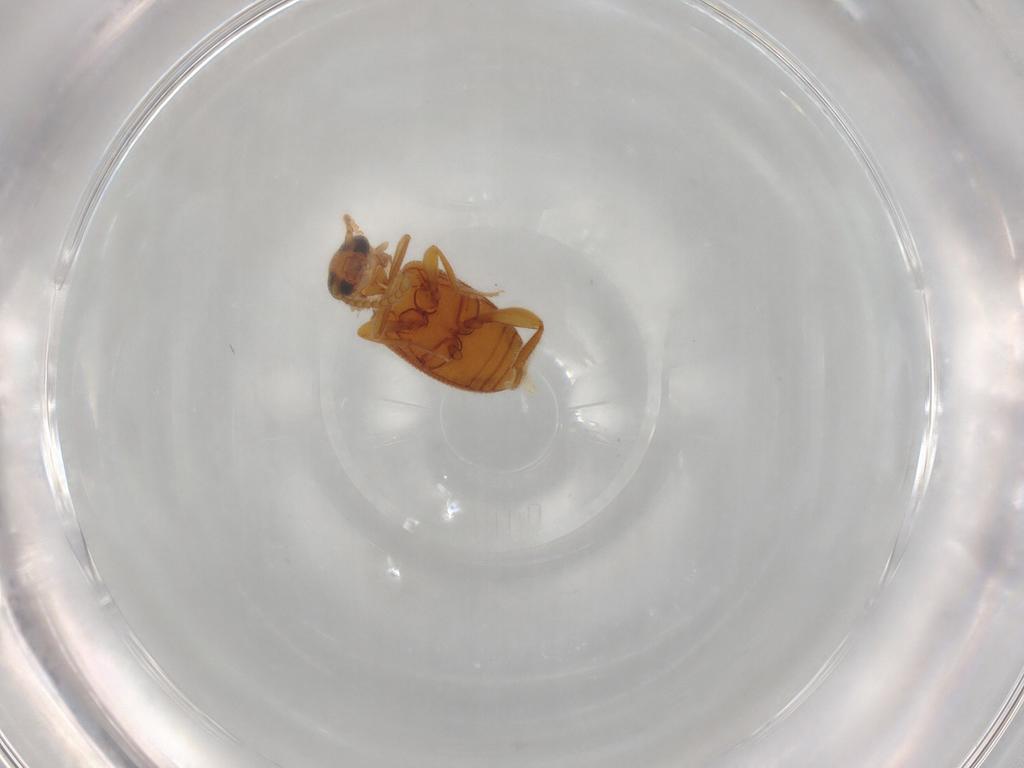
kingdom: Animalia
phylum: Arthropoda
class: Insecta
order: Coleoptera
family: Aderidae
